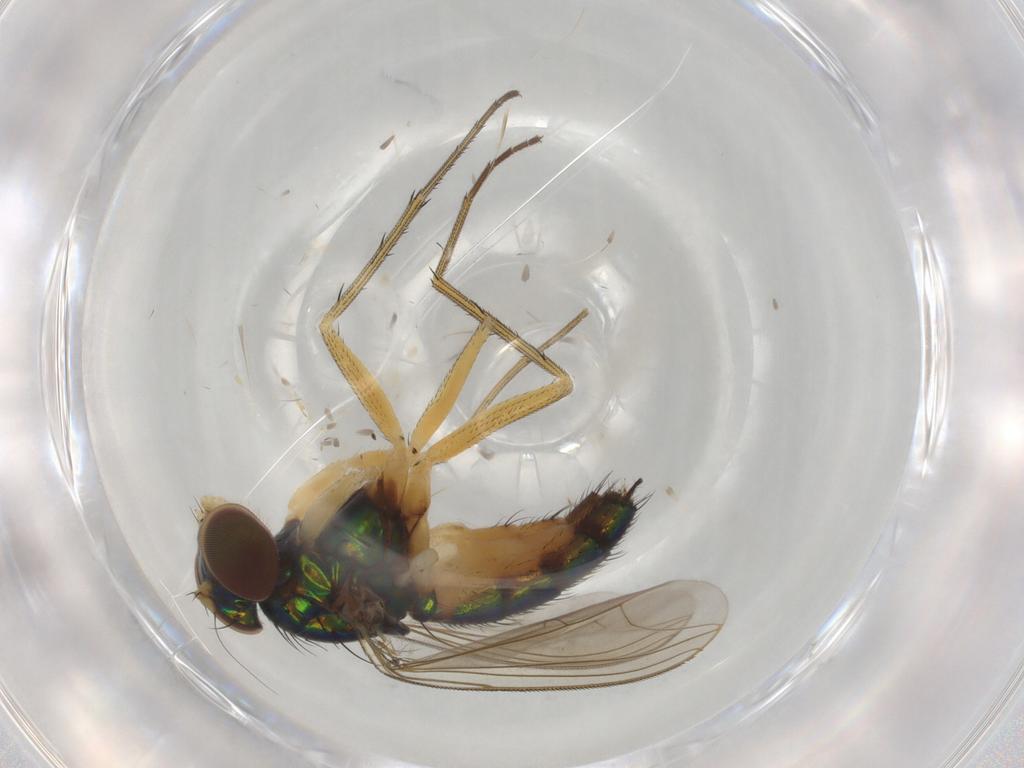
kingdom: Animalia
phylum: Arthropoda
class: Insecta
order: Diptera
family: Dolichopodidae
